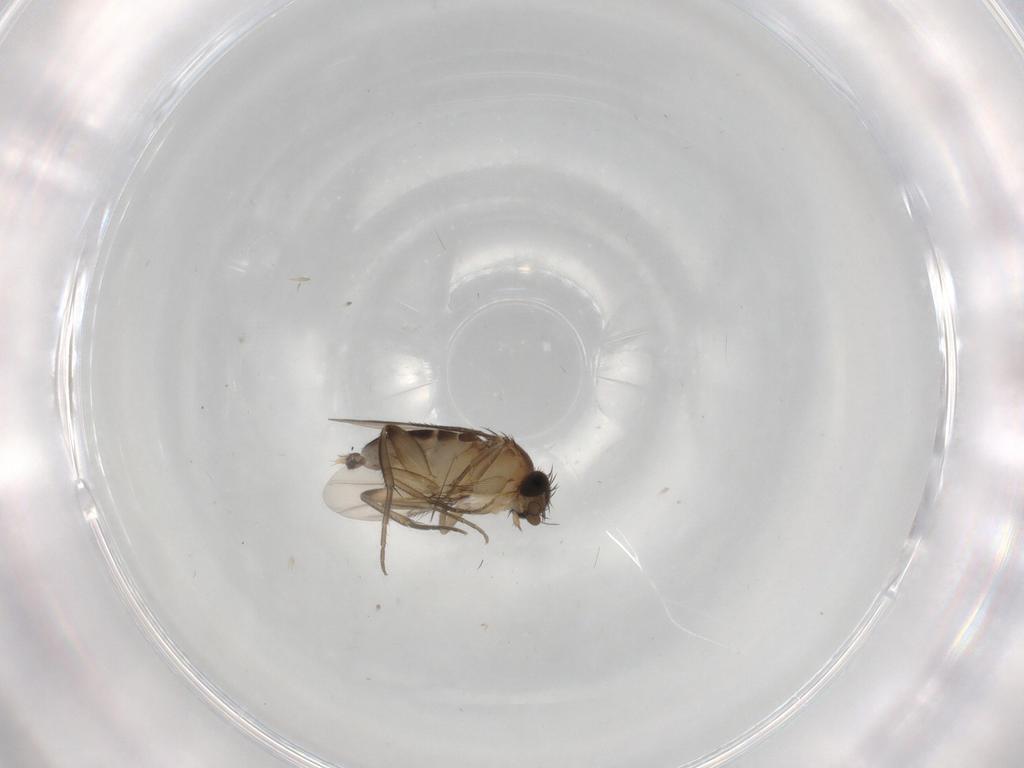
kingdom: Animalia
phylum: Arthropoda
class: Insecta
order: Diptera
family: Phoridae
